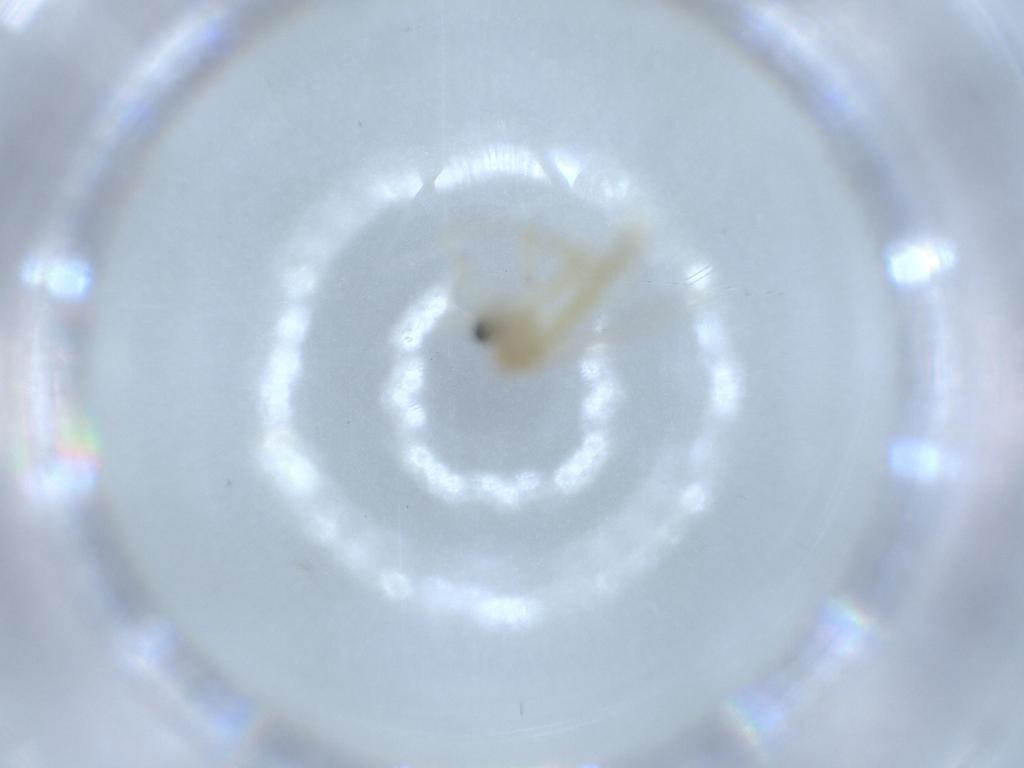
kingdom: Animalia
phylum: Arthropoda
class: Insecta
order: Diptera
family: Chironomidae
